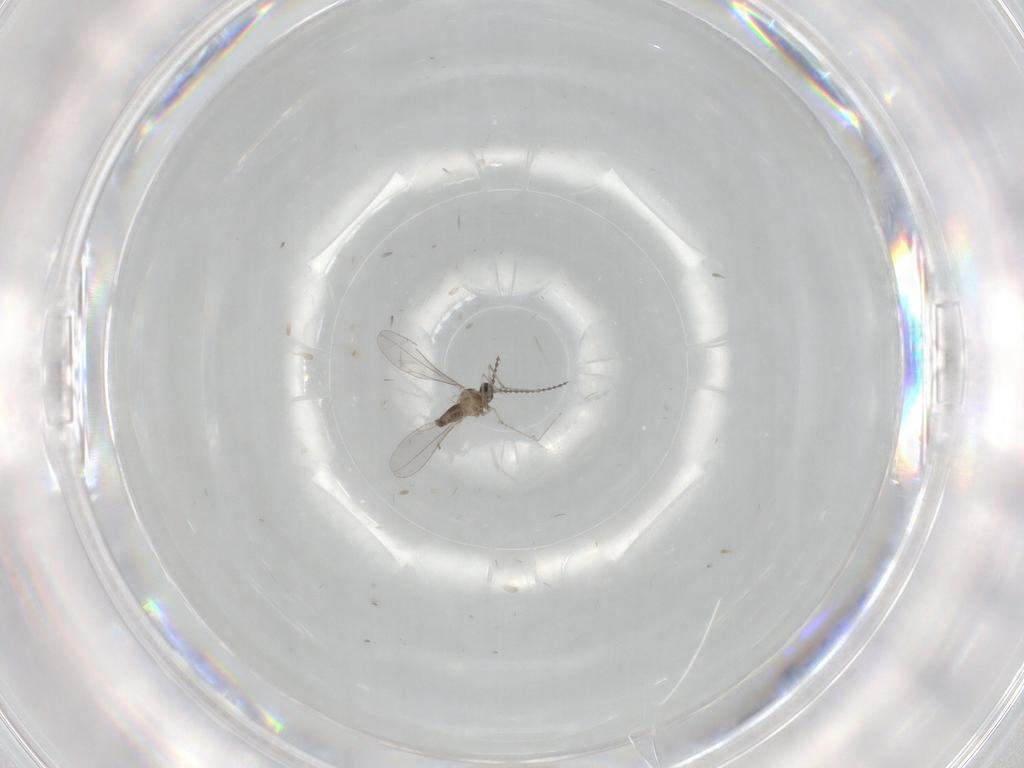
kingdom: Animalia
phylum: Arthropoda
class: Insecta
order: Diptera
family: Cecidomyiidae
